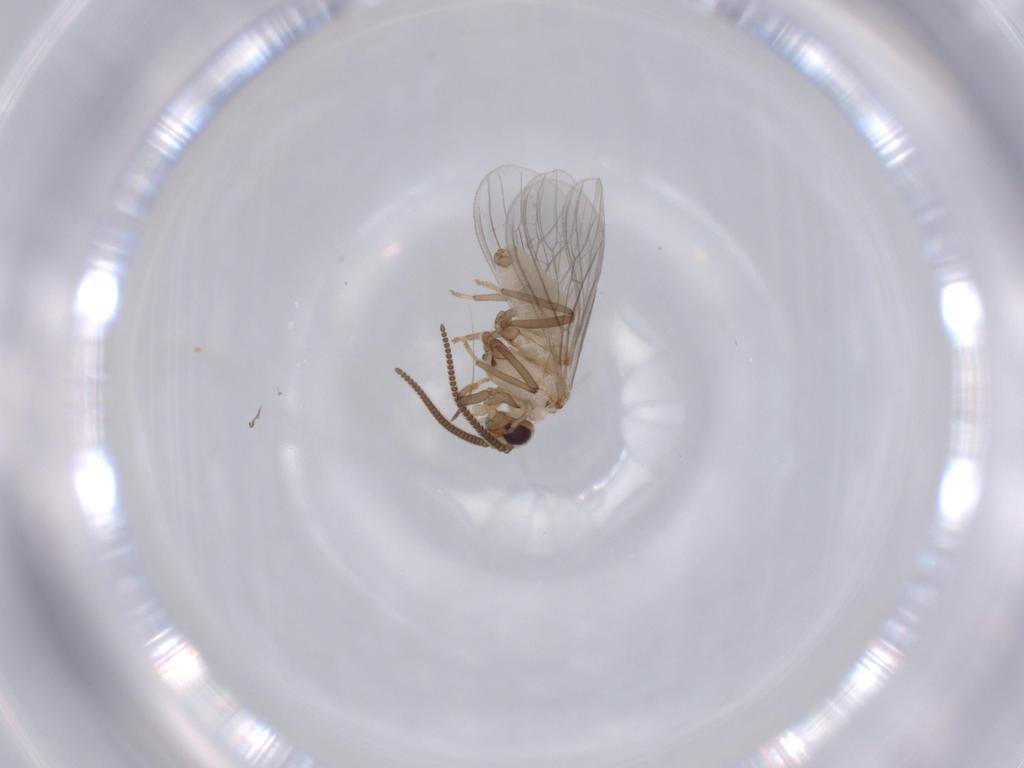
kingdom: Animalia
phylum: Arthropoda
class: Insecta
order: Neuroptera
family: Coniopterygidae
